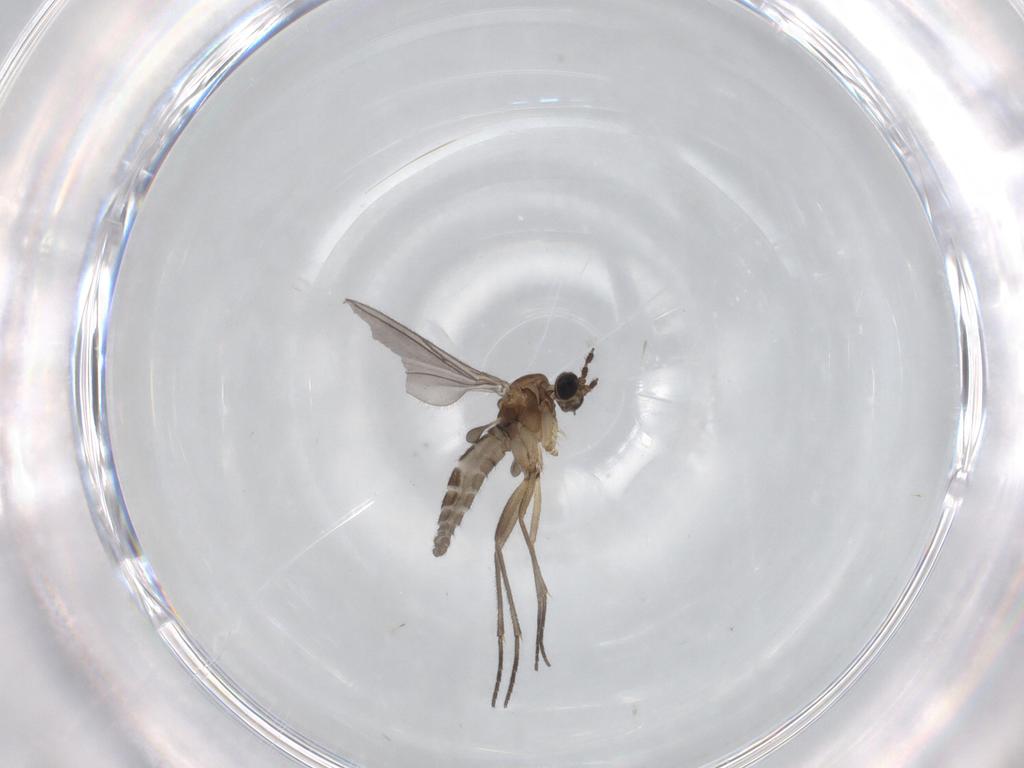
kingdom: Animalia
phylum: Arthropoda
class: Insecta
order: Diptera
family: Sciaridae
